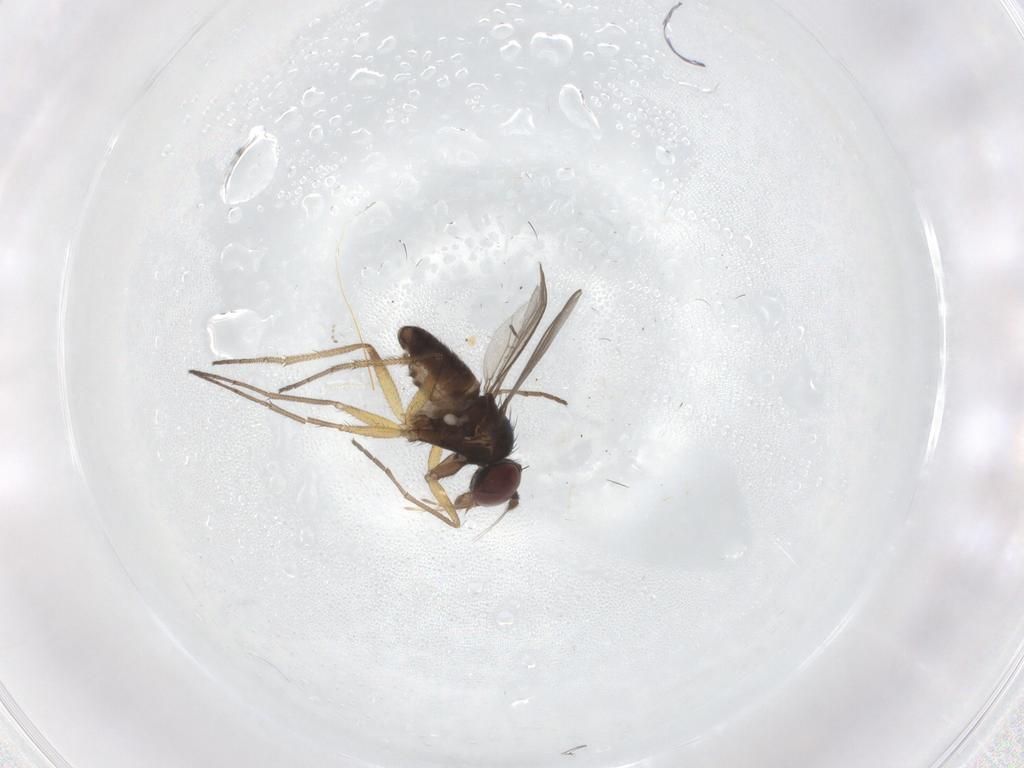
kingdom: Animalia
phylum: Arthropoda
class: Insecta
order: Diptera
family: Dolichopodidae
